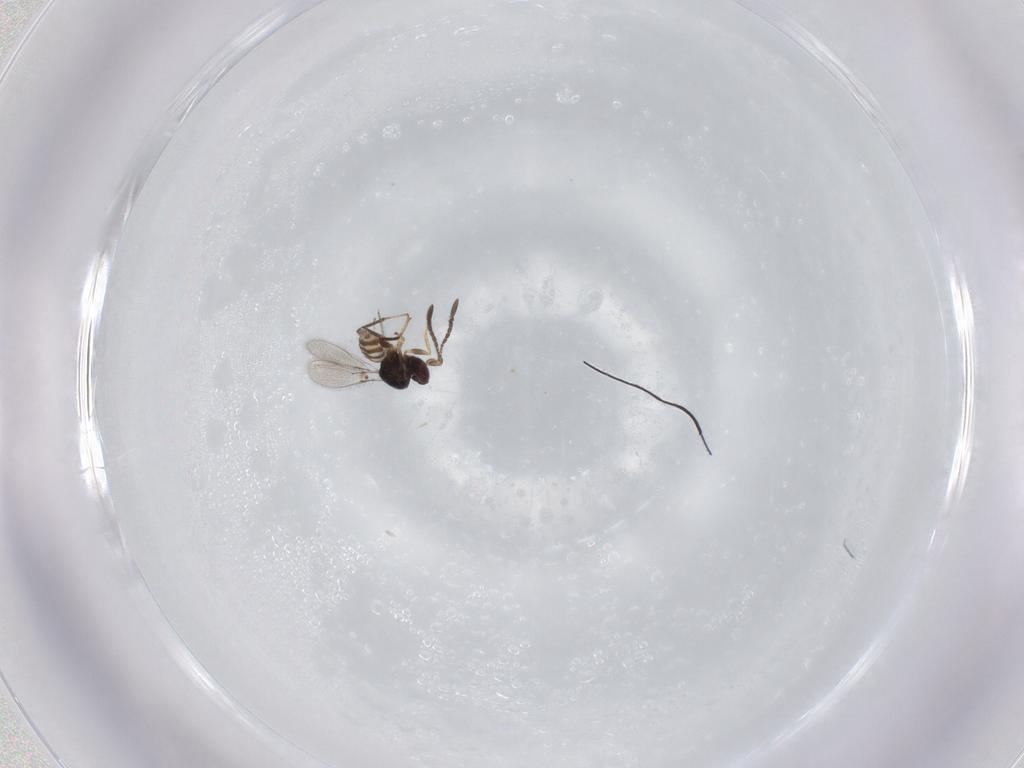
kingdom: Animalia
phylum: Arthropoda
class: Insecta
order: Hymenoptera
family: Mymaridae
